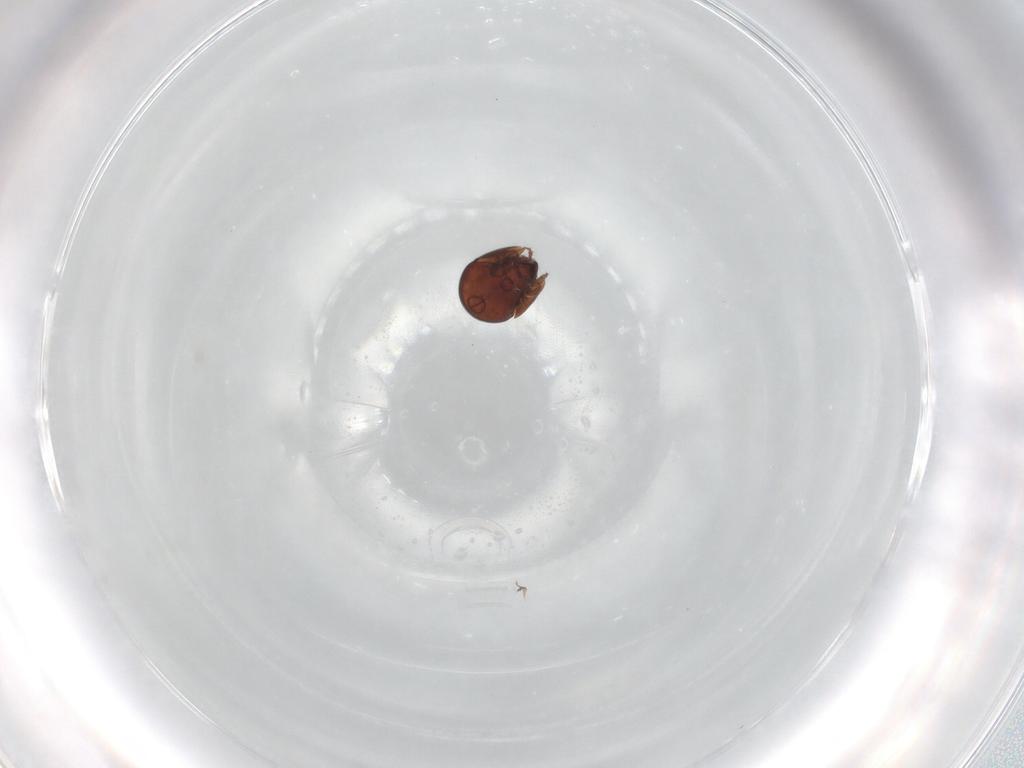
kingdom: Animalia
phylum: Arthropoda
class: Arachnida
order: Sarcoptiformes
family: Galumnidae
